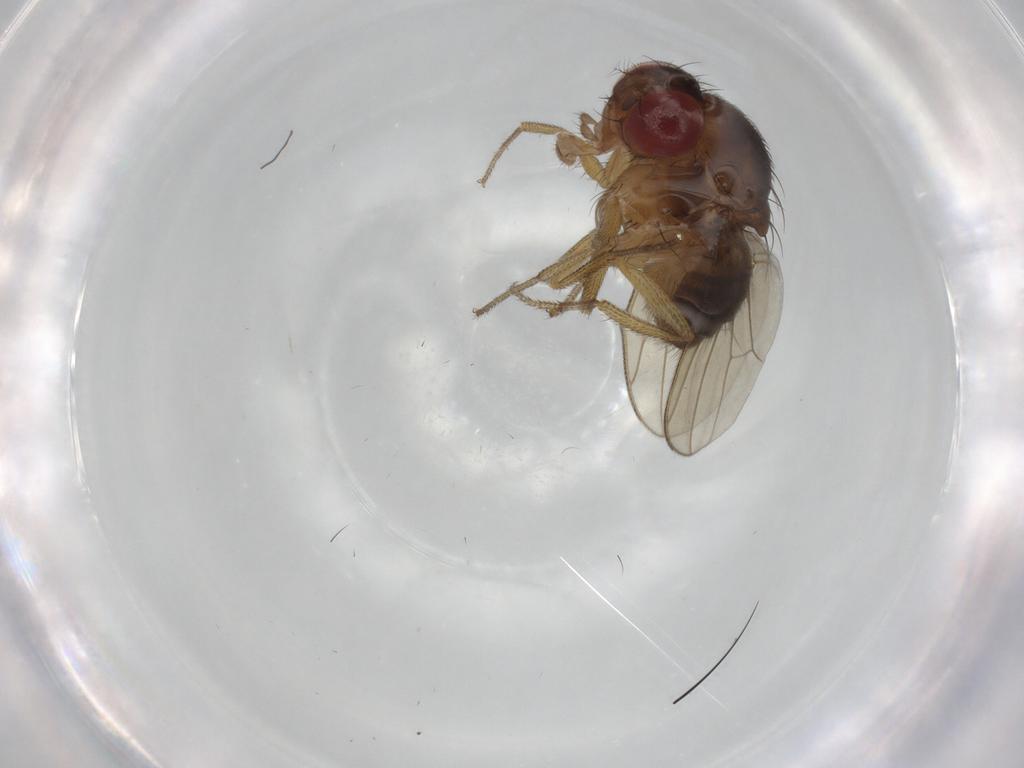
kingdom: Animalia
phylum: Arthropoda
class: Insecta
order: Diptera
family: Drosophilidae
